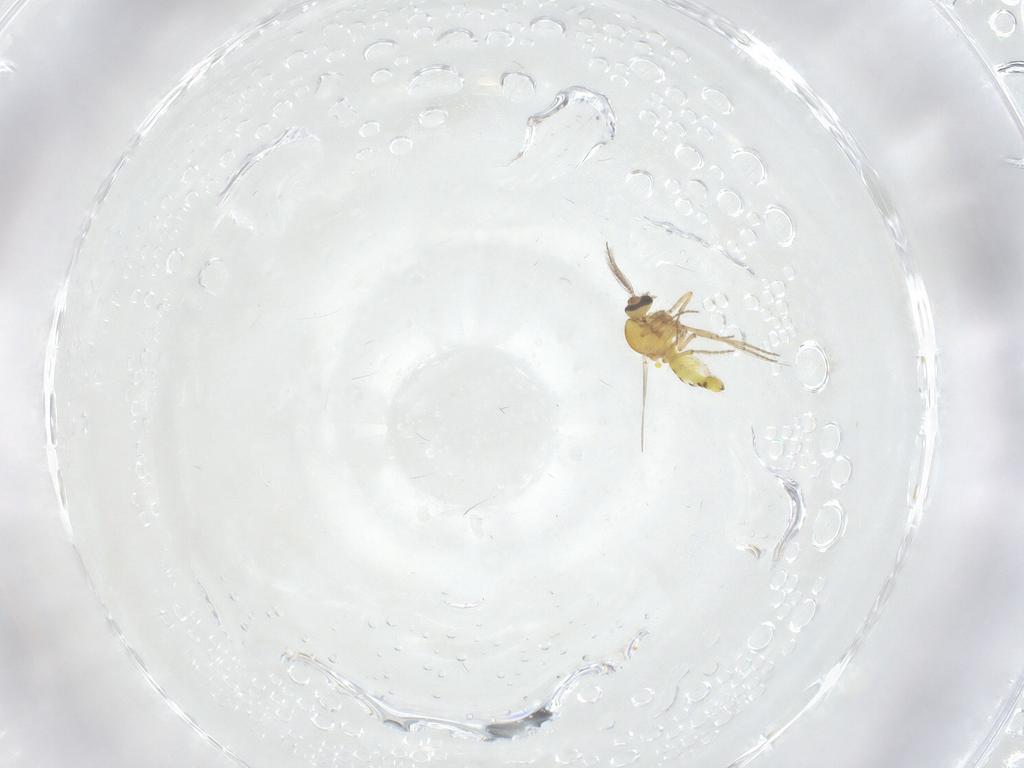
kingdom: Animalia
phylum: Arthropoda
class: Insecta
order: Diptera
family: Ceratopogonidae
